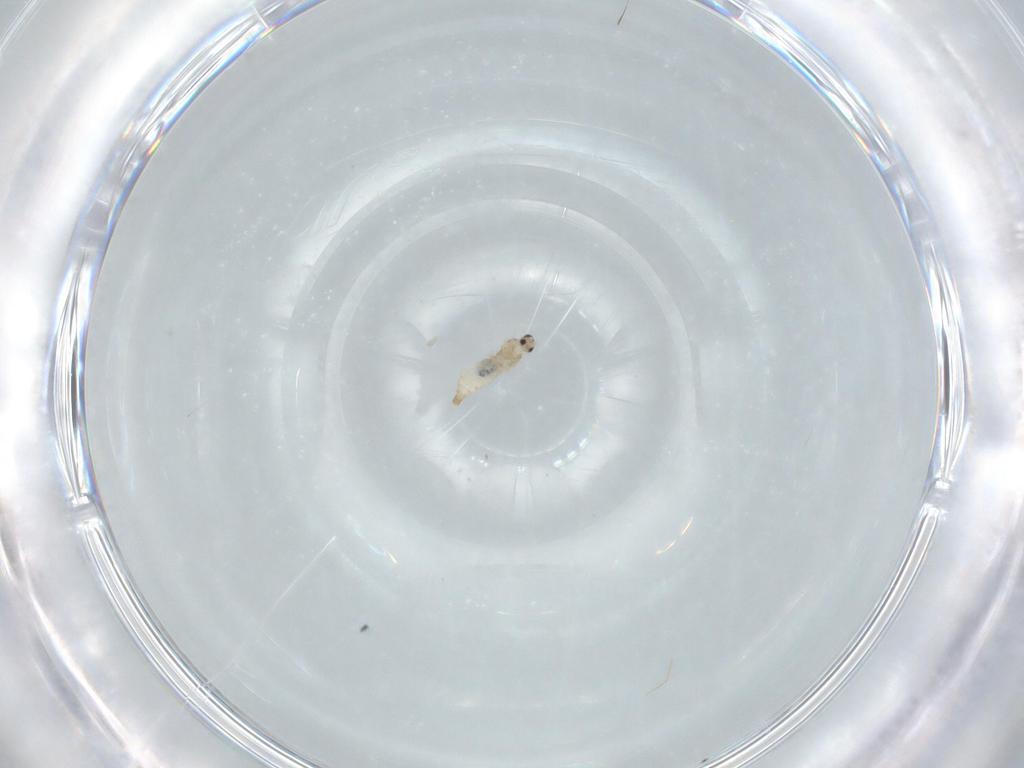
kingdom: Animalia
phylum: Arthropoda
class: Insecta
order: Diptera
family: Cecidomyiidae
